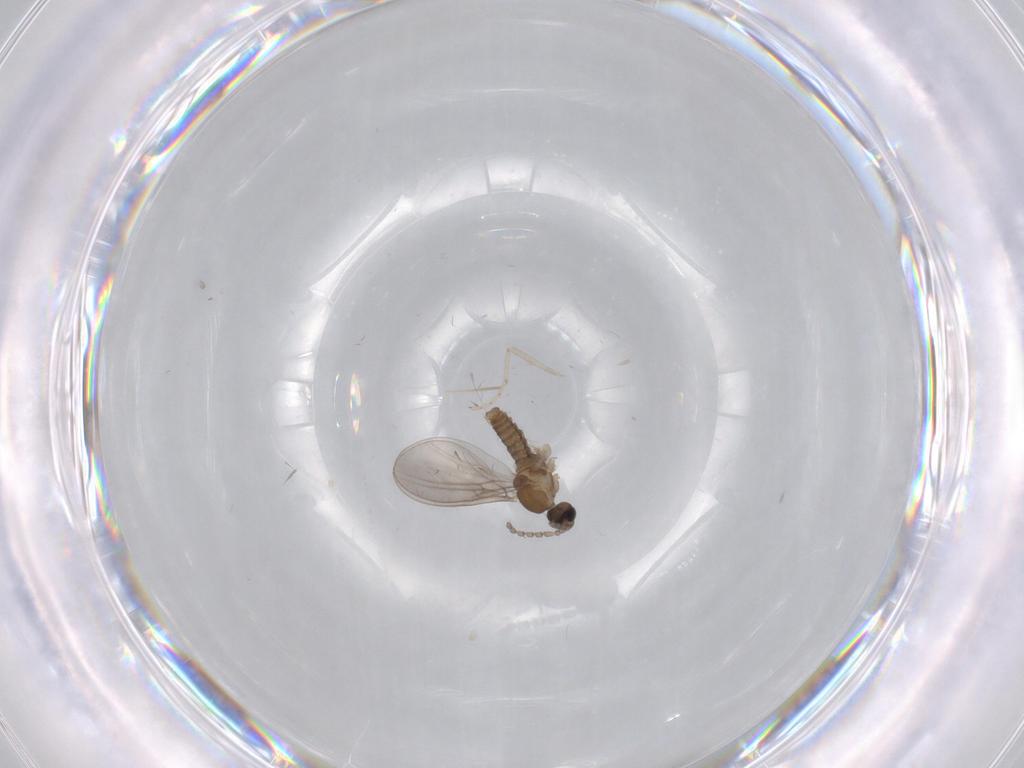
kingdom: Animalia
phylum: Arthropoda
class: Insecta
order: Diptera
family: Cecidomyiidae
